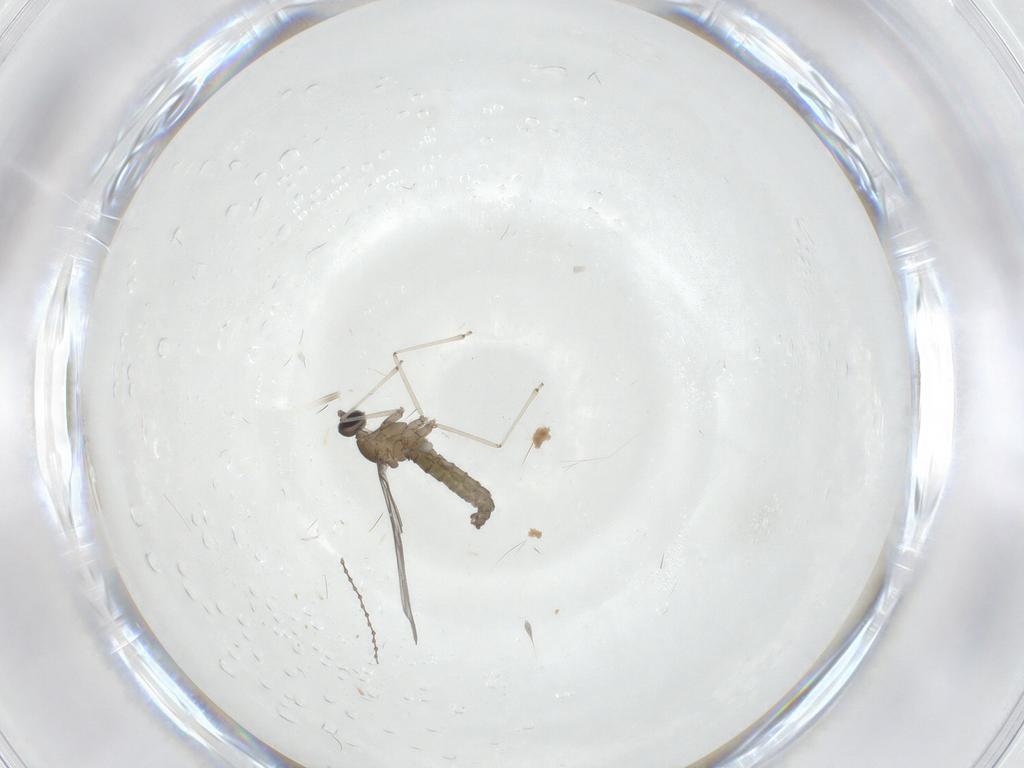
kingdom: Animalia
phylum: Arthropoda
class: Insecta
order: Diptera
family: Cecidomyiidae
